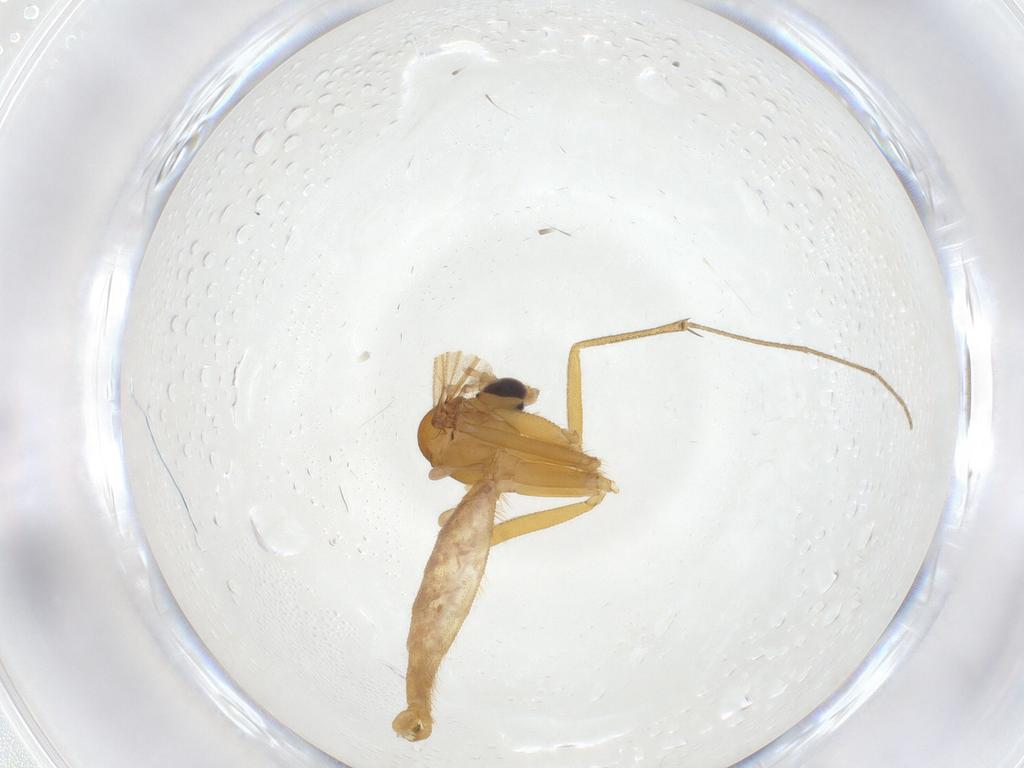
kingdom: Animalia
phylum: Arthropoda
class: Insecta
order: Diptera
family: Mycetophilidae
